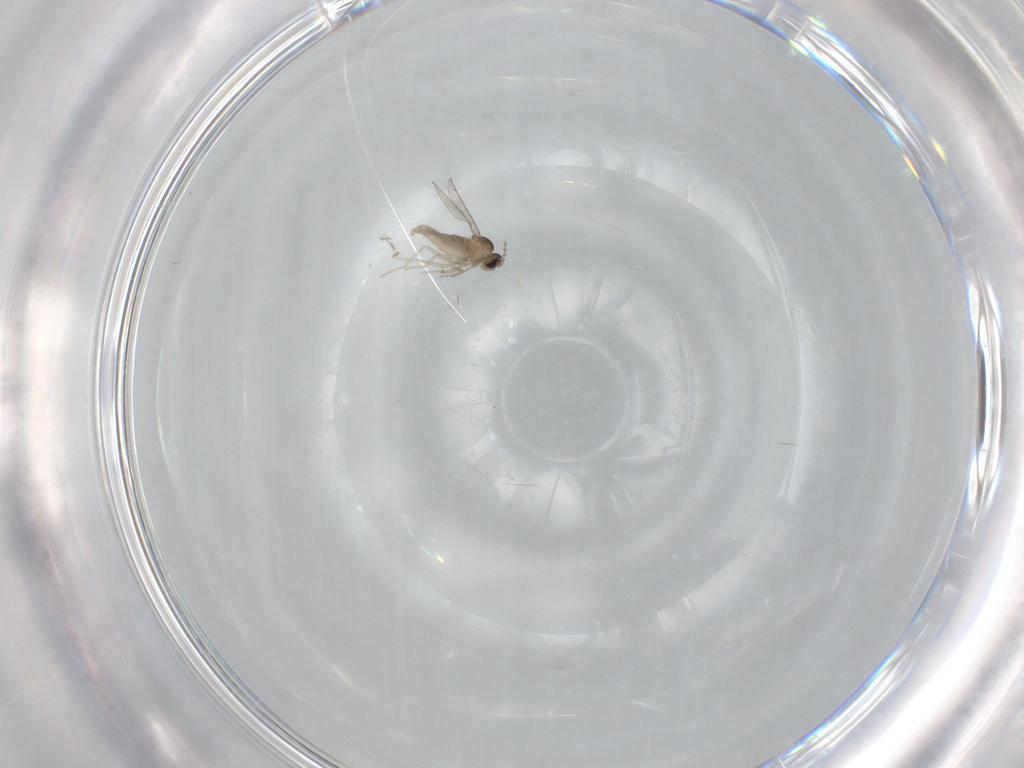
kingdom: Animalia
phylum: Arthropoda
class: Insecta
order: Diptera
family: Cecidomyiidae
